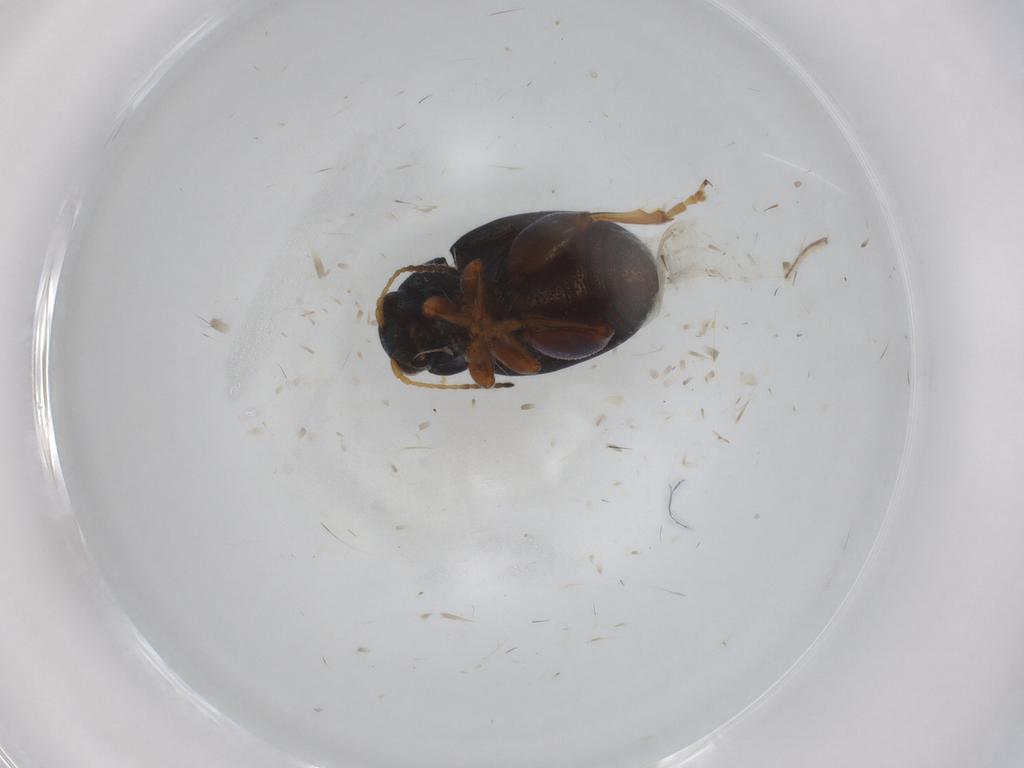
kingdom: Animalia
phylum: Arthropoda
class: Insecta
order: Coleoptera
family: Chrysomelidae
